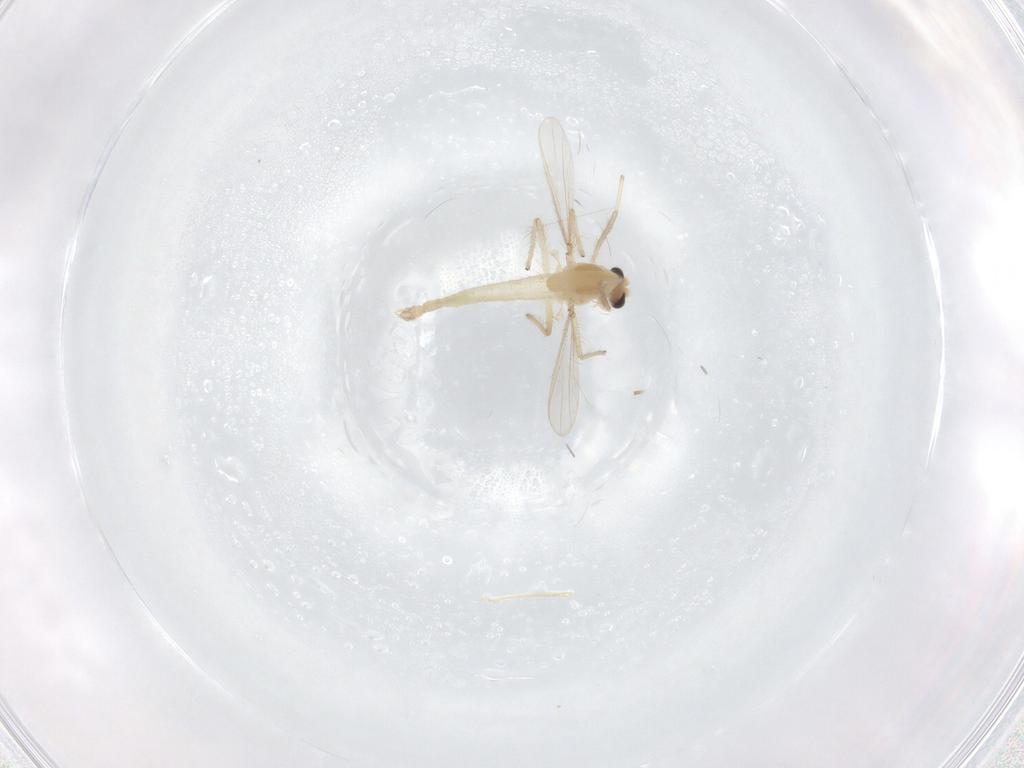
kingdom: Animalia
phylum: Arthropoda
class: Insecta
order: Diptera
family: Chironomidae
